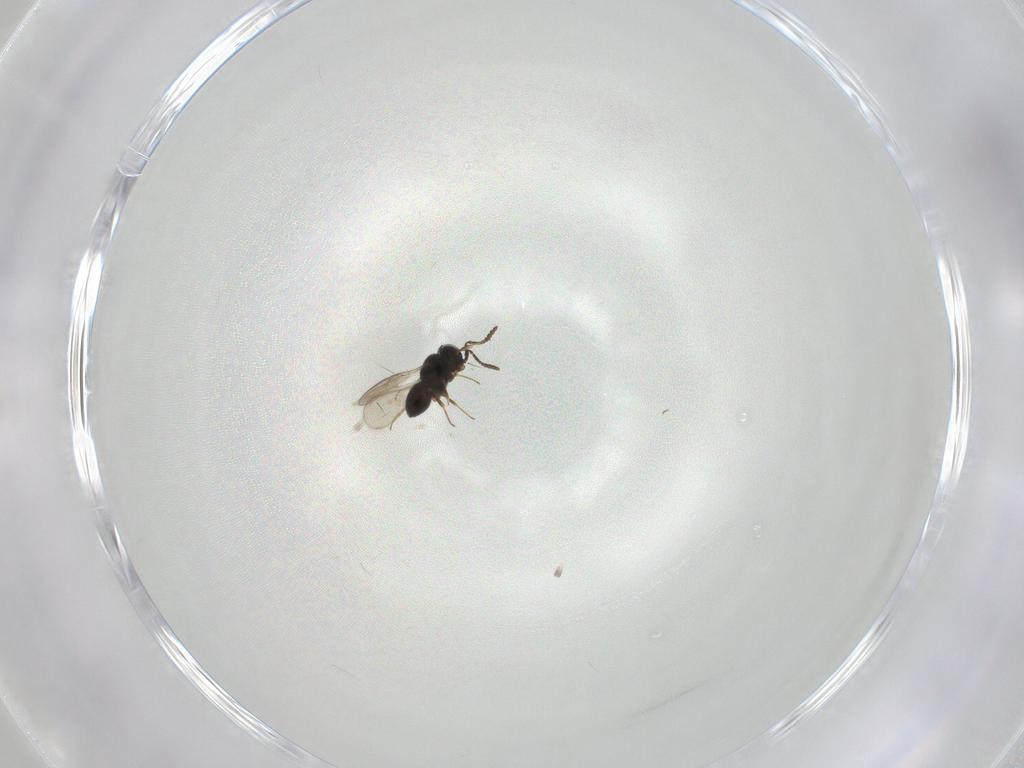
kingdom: Animalia
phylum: Arthropoda
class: Insecta
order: Hymenoptera
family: Scelionidae
